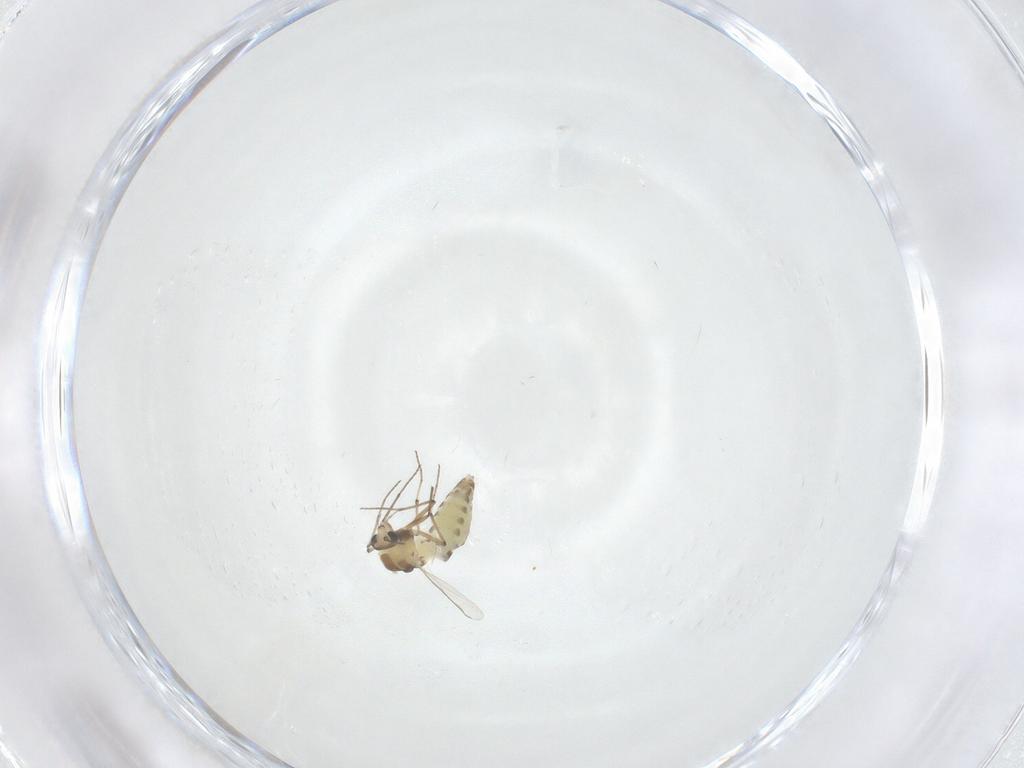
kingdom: Animalia
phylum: Arthropoda
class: Insecta
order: Diptera
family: Chironomidae
